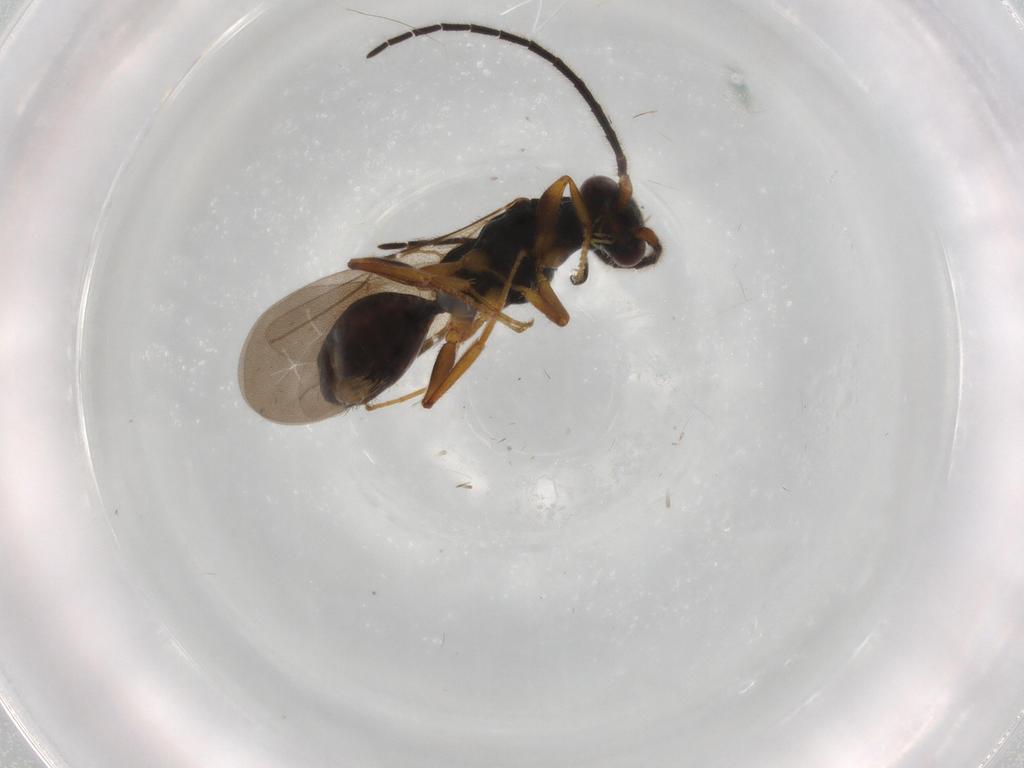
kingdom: Animalia
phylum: Arthropoda
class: Insecta
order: Hymenoptera
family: Bethylidae
